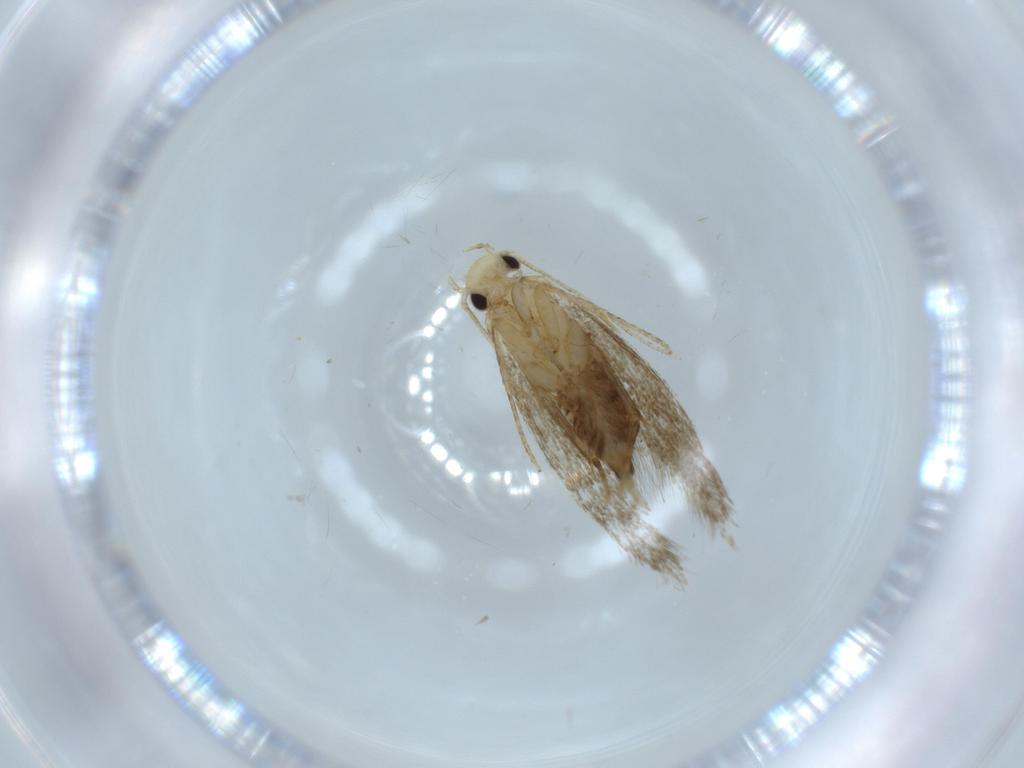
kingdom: Animalia
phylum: Arthropoda
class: Insecta
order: Lepidoptera
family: Tineidae
